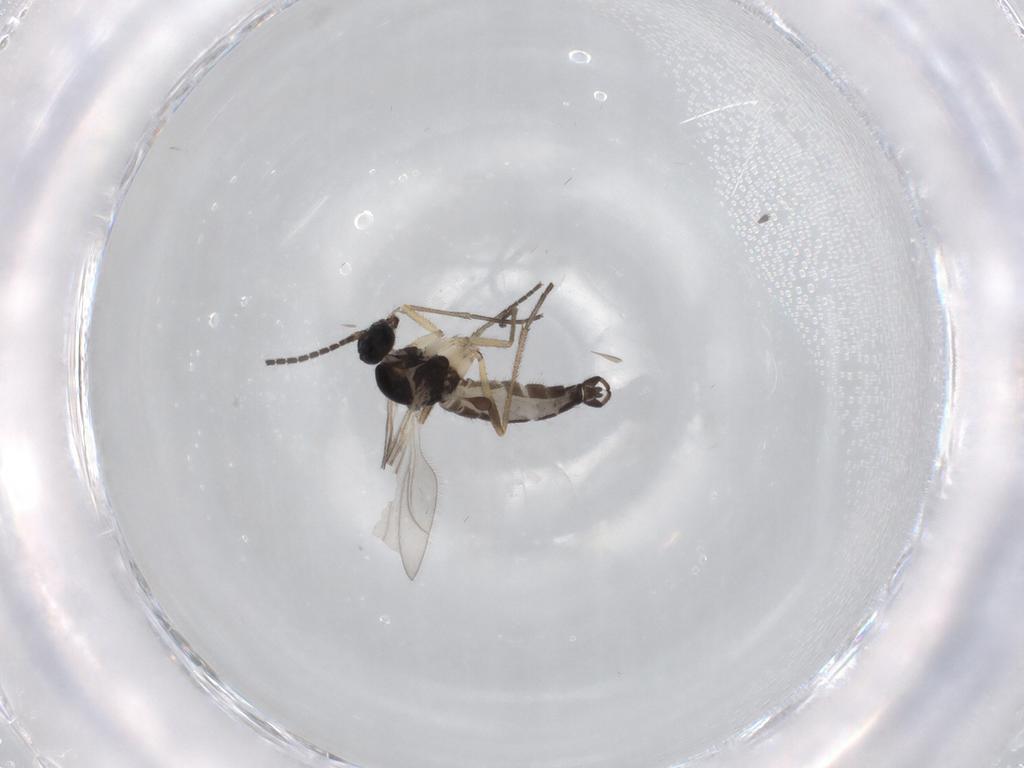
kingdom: Animalia
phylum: Arthropoda
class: Insecta
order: Diptera
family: Sciaridae
